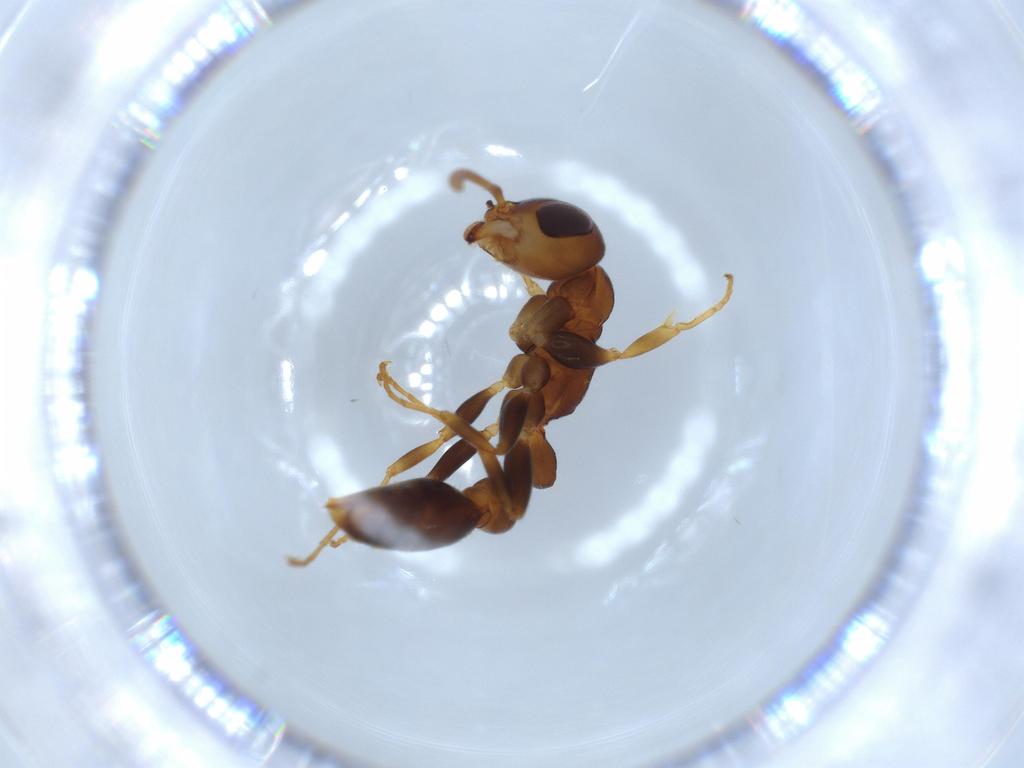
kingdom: Animalia
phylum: Arthropoda
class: Insecta
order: Hymenoptera
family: Formicidae
